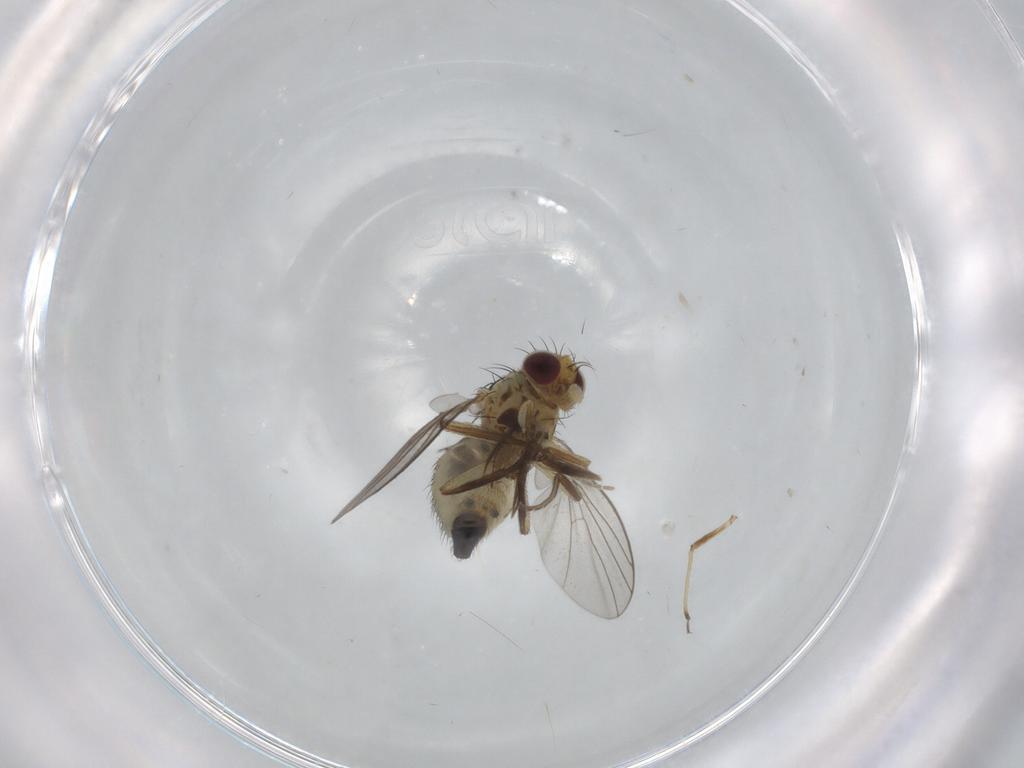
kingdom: Animalia
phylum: Arthropoda
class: Insecta
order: Diptera
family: Agromyzidae
